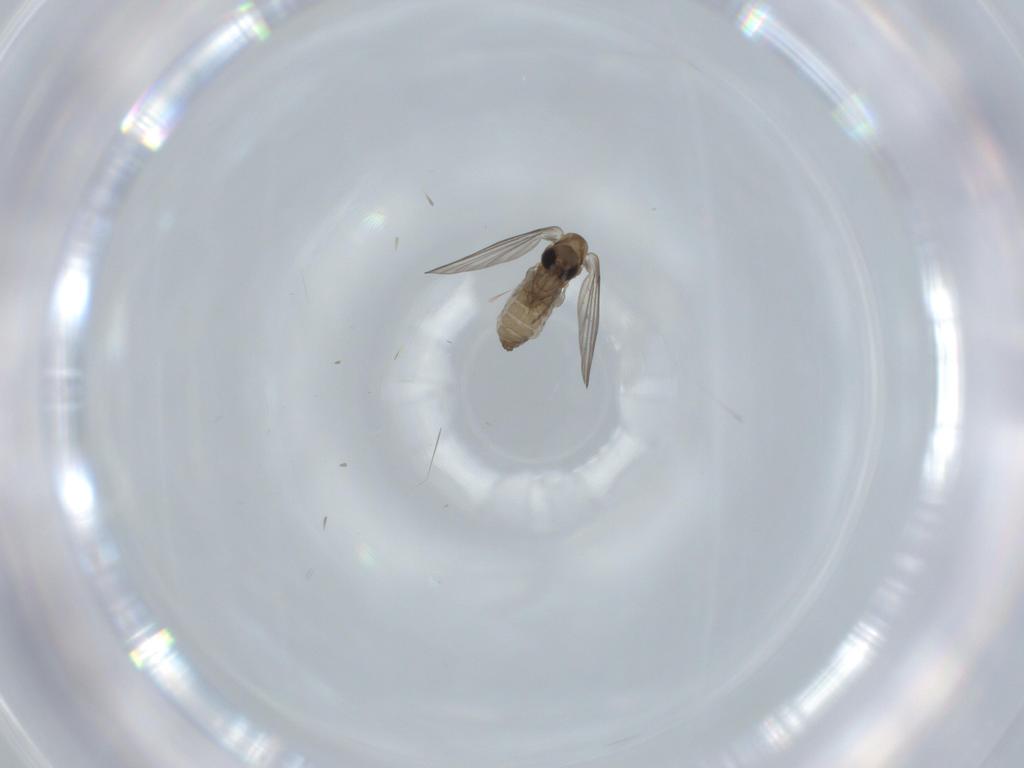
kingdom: Animalia
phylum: Arthropoda
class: Insecta
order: Diptera
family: Psychodidae
